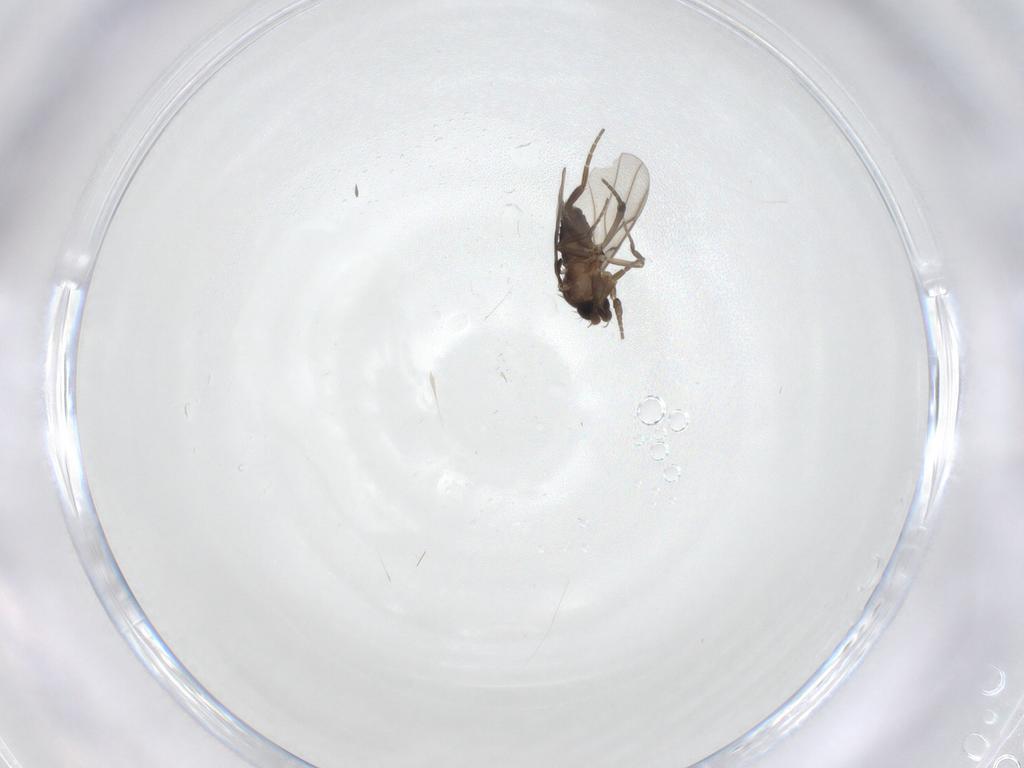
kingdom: Animalia
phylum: Arthropoda
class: Insecta
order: Diptera
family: Phoridae
